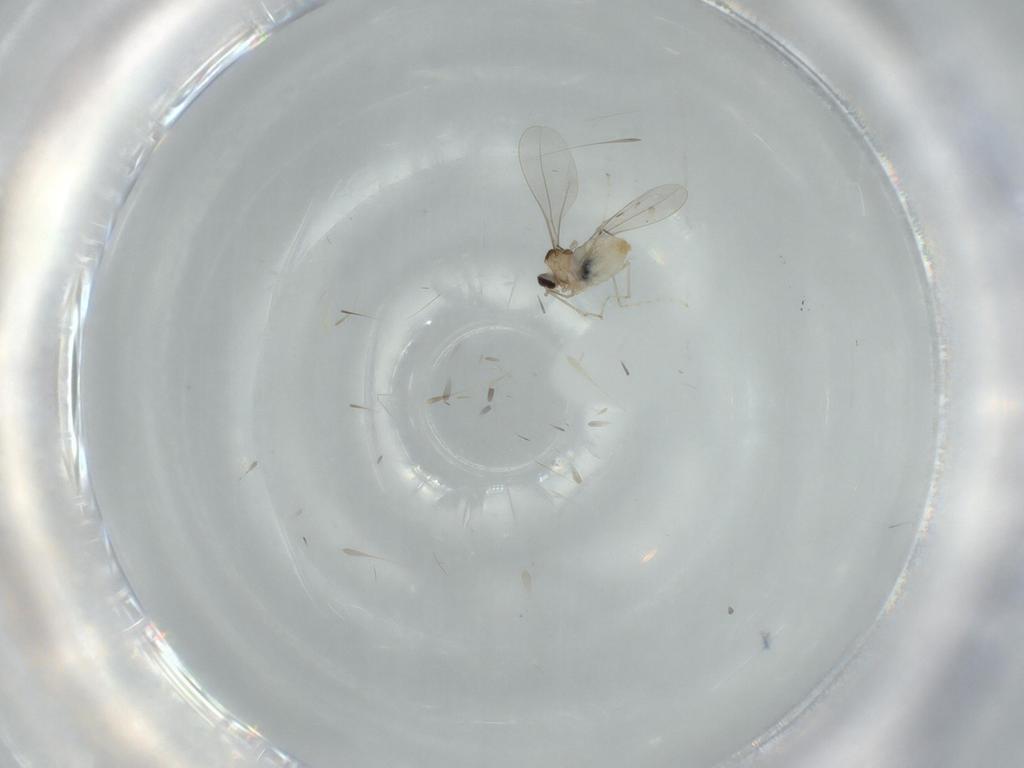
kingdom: Animalia
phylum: Arthropoda
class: Insecta
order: Diptera
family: Cecidomyiidae
